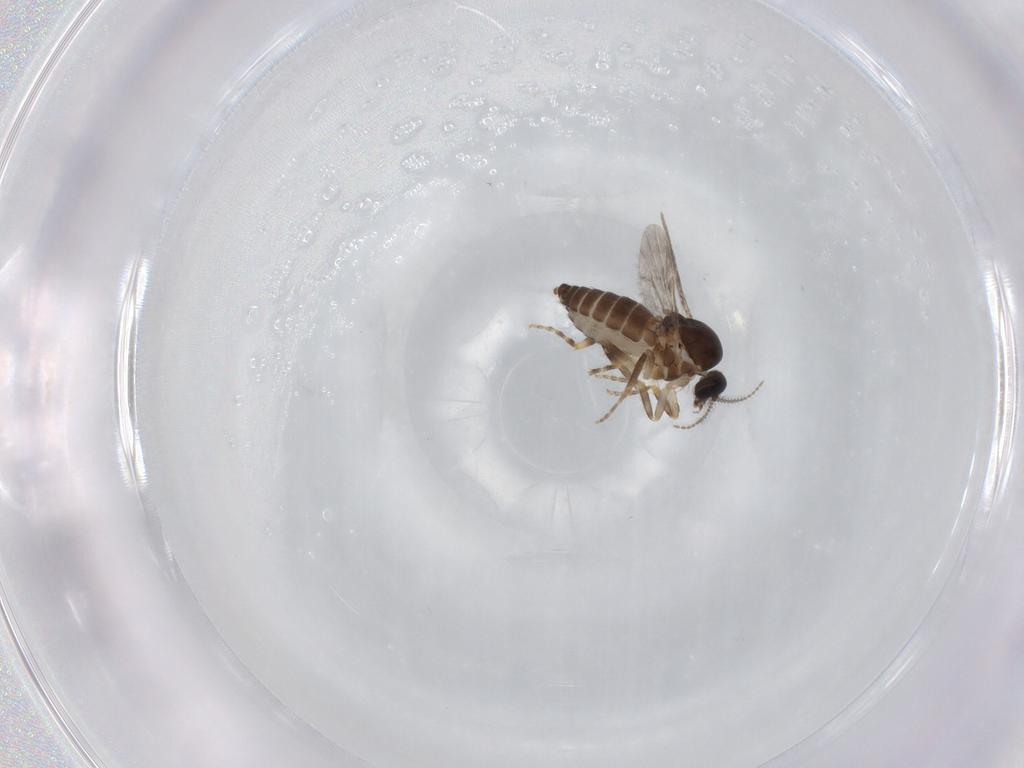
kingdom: Animalia
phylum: Arthropoda
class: Insecta
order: Diptera
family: Ceratopogonidae
